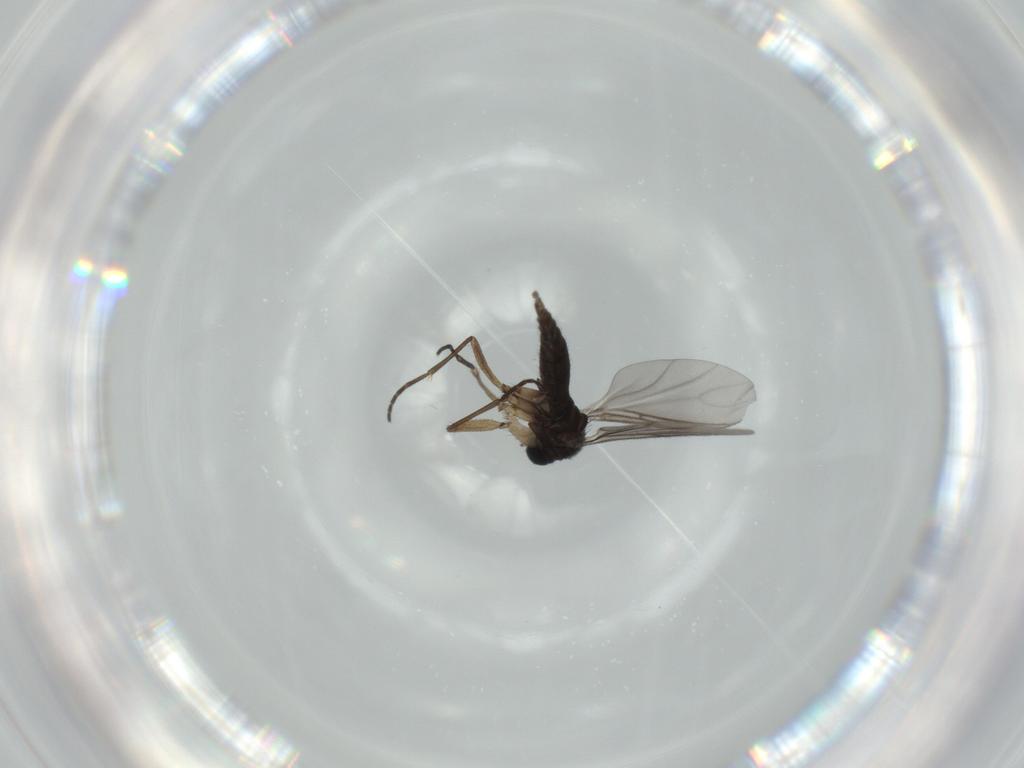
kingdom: Animalia
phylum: Arthropoda
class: Insecta
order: Diptera
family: Sciaridae
